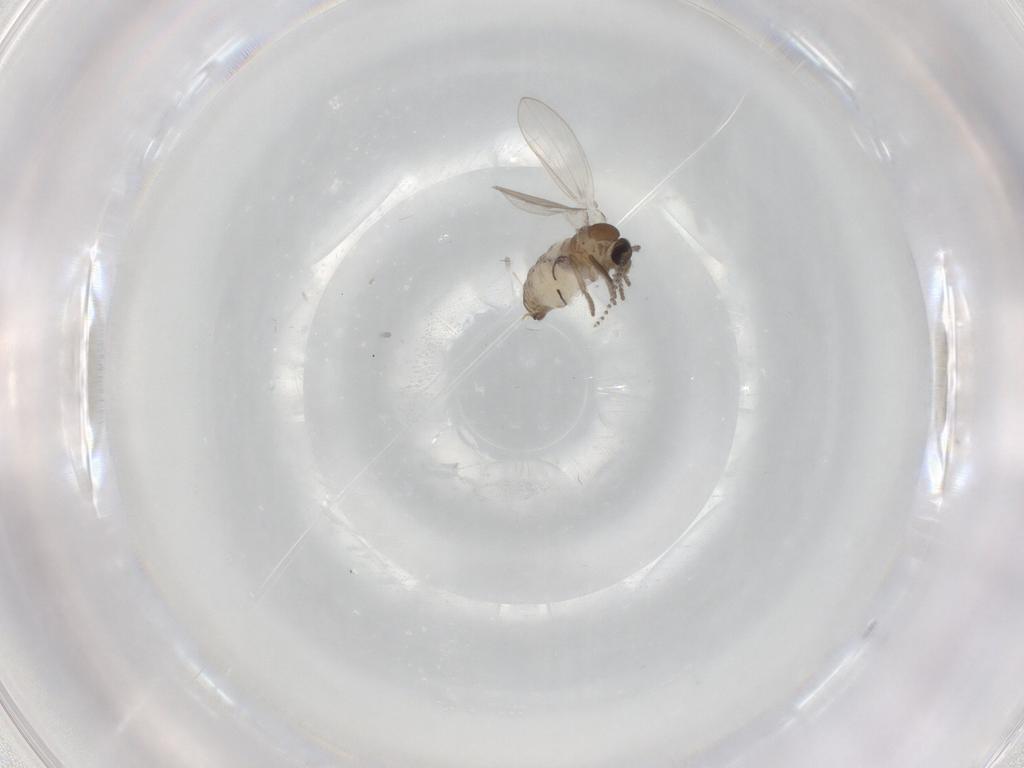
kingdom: Animalia
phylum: Arthropoda
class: Insecta
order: Diptera
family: Psychodidae
